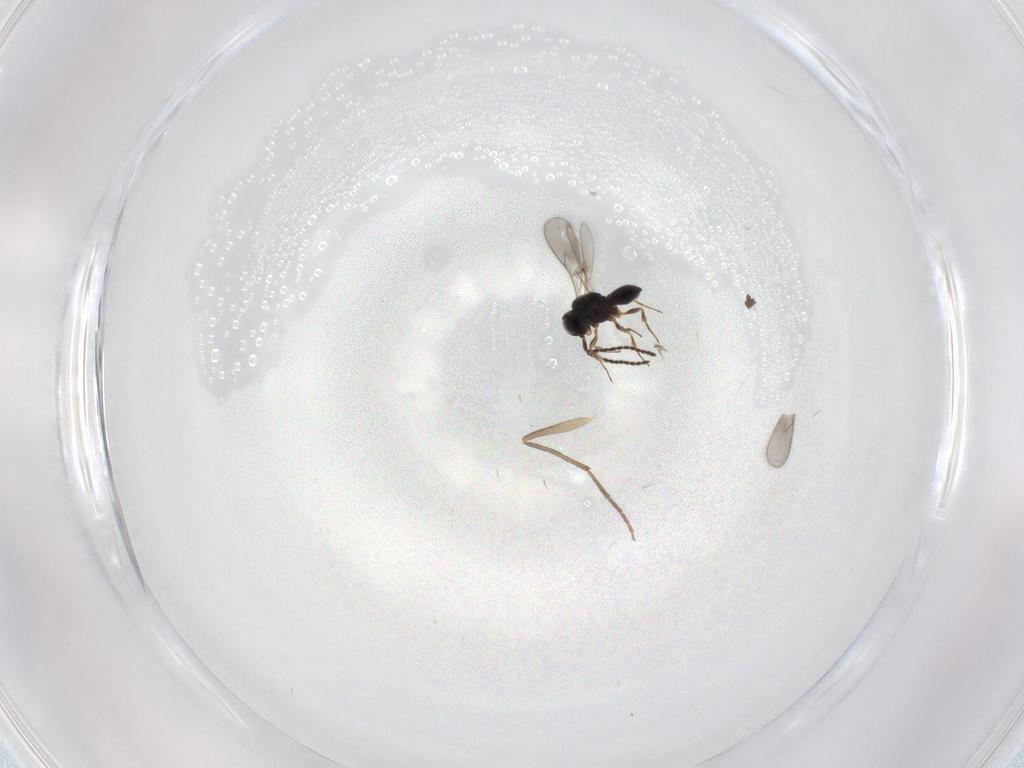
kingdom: Animalia
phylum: Arthropoda
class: Insecta
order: Hymenoptera
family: Scelionidae
